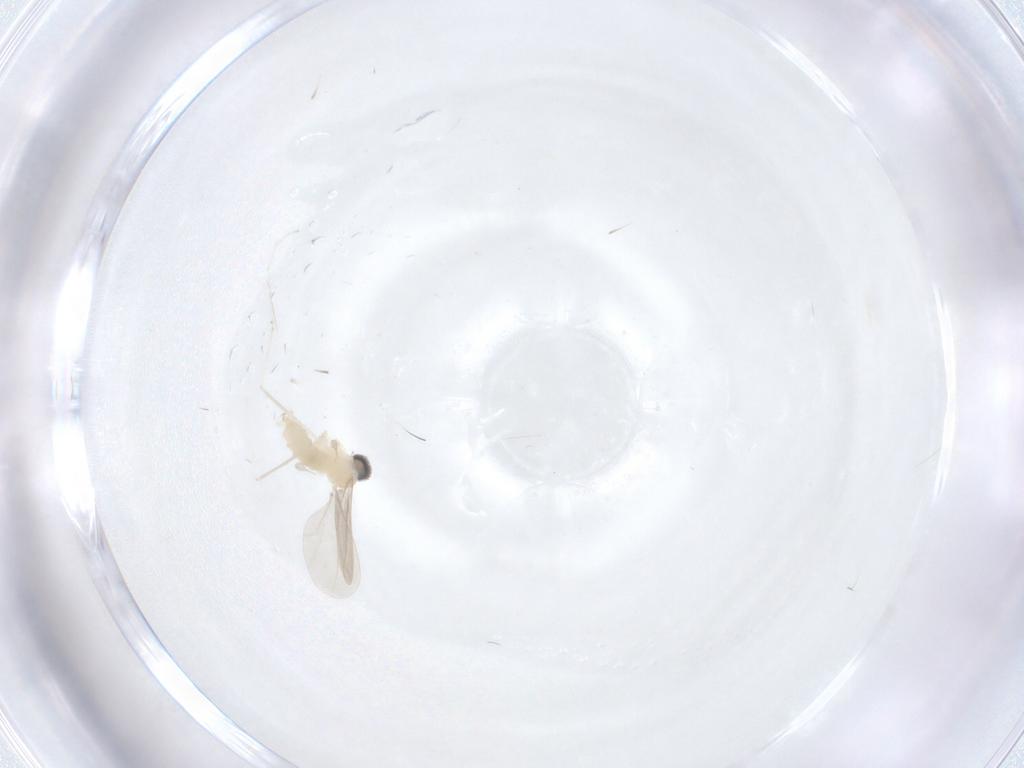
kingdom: Animalia
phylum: Arthropoda
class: Insecta
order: Diptera
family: Cecidomyiidae
